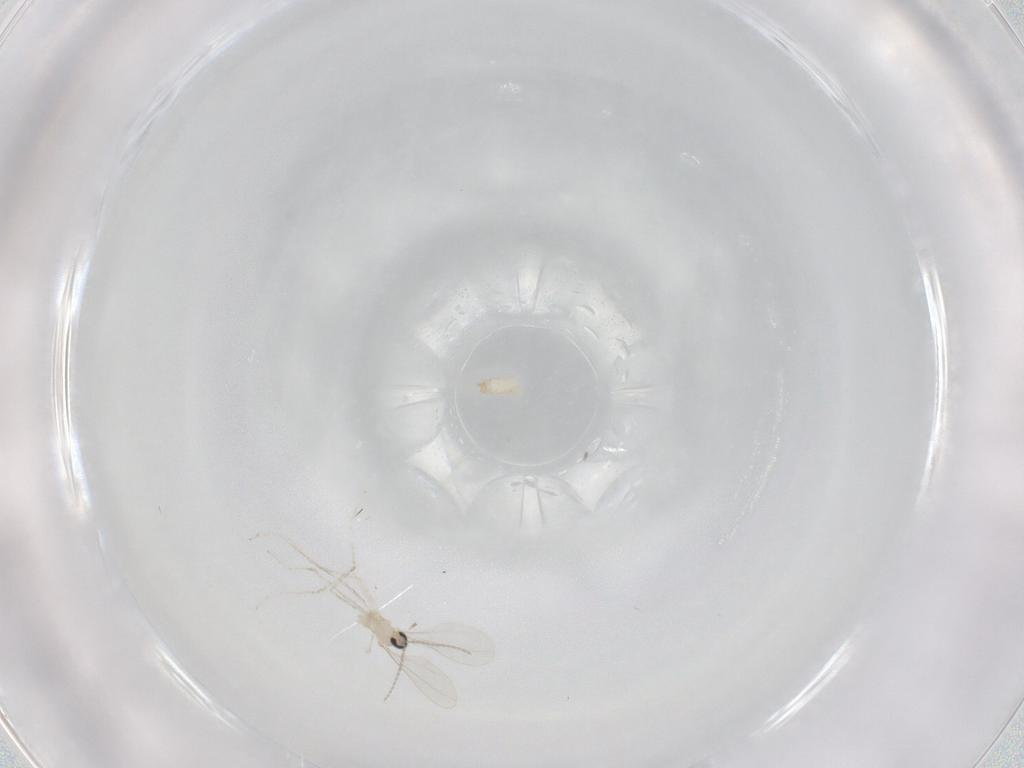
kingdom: Animalia
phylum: Arthropoda
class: Insecta
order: Diptera
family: Cecidomyiidae
